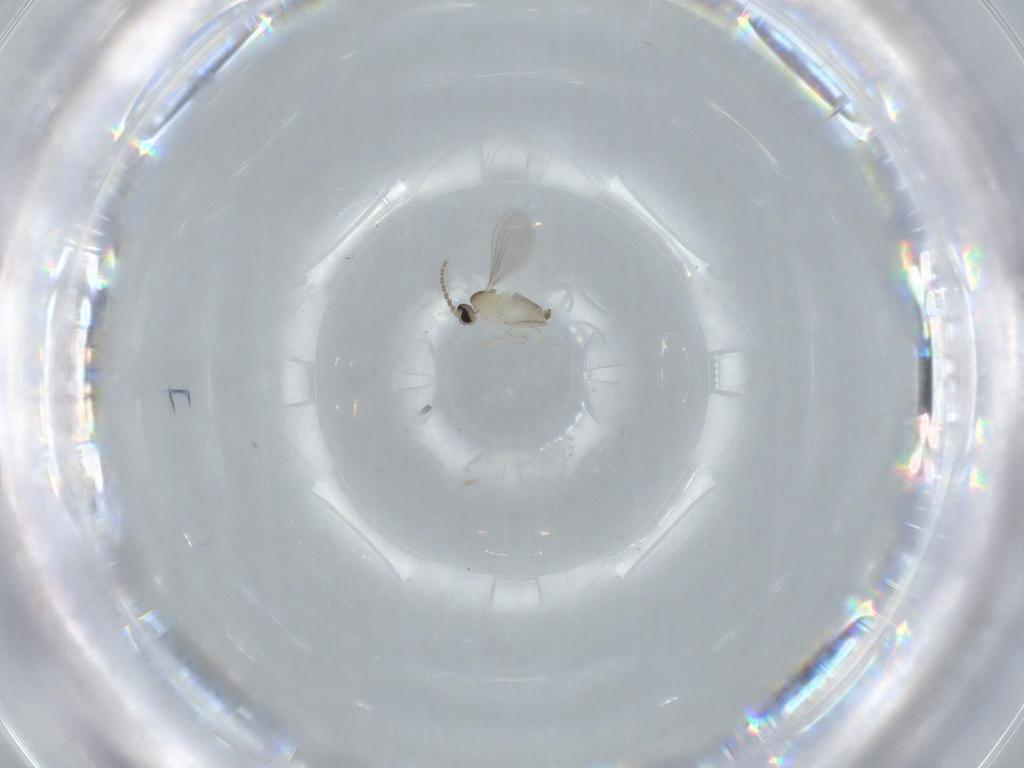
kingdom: Animalia
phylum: Arthropoda
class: Insecta
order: Diptera
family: Cecidomyiidae
